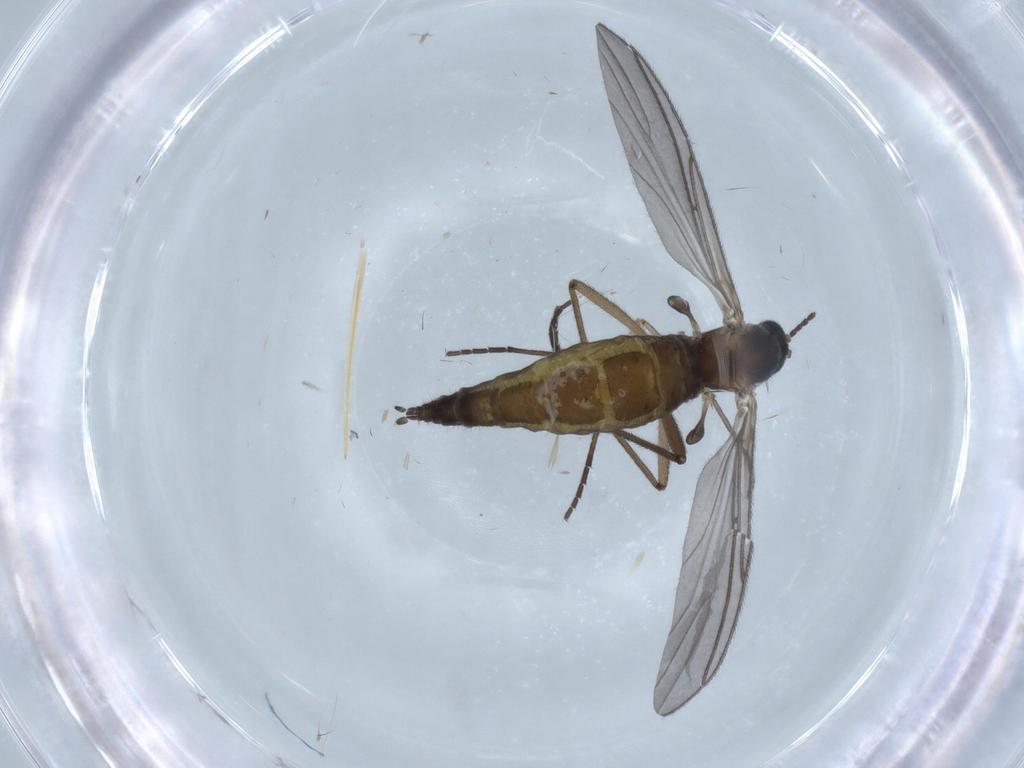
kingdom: Animalia
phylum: Arthropoda
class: Insecta
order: Diptera
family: Sciaridae
